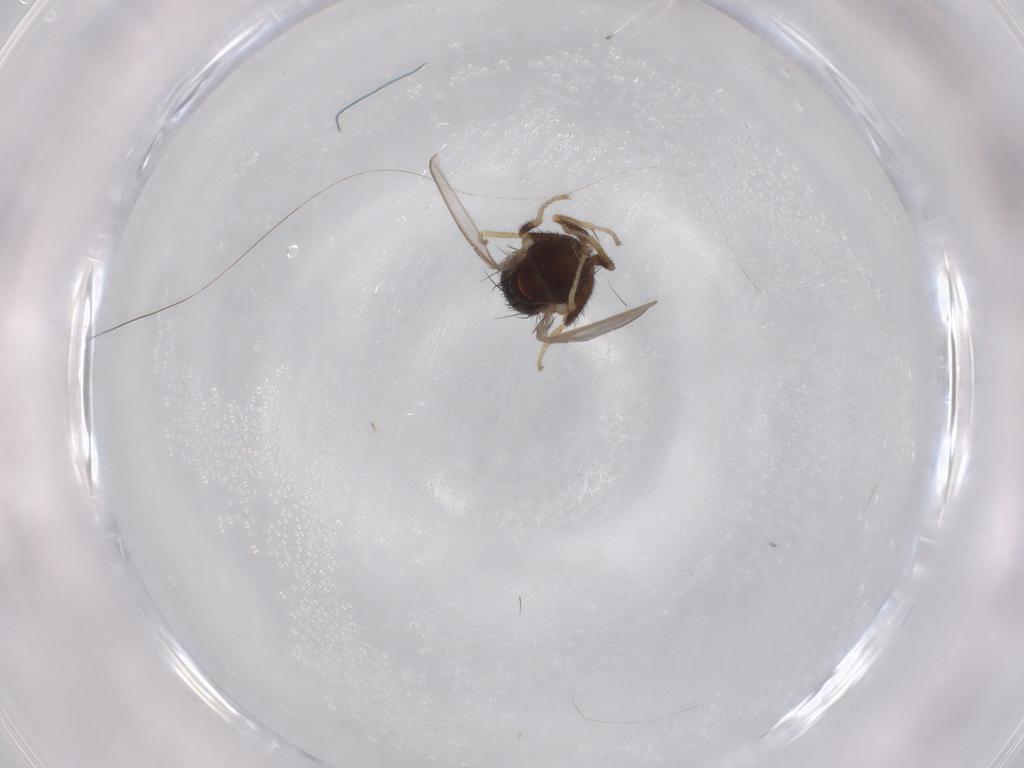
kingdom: Animalia
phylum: Arthropoda
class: Insecta
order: Diptera
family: Milichiidae
